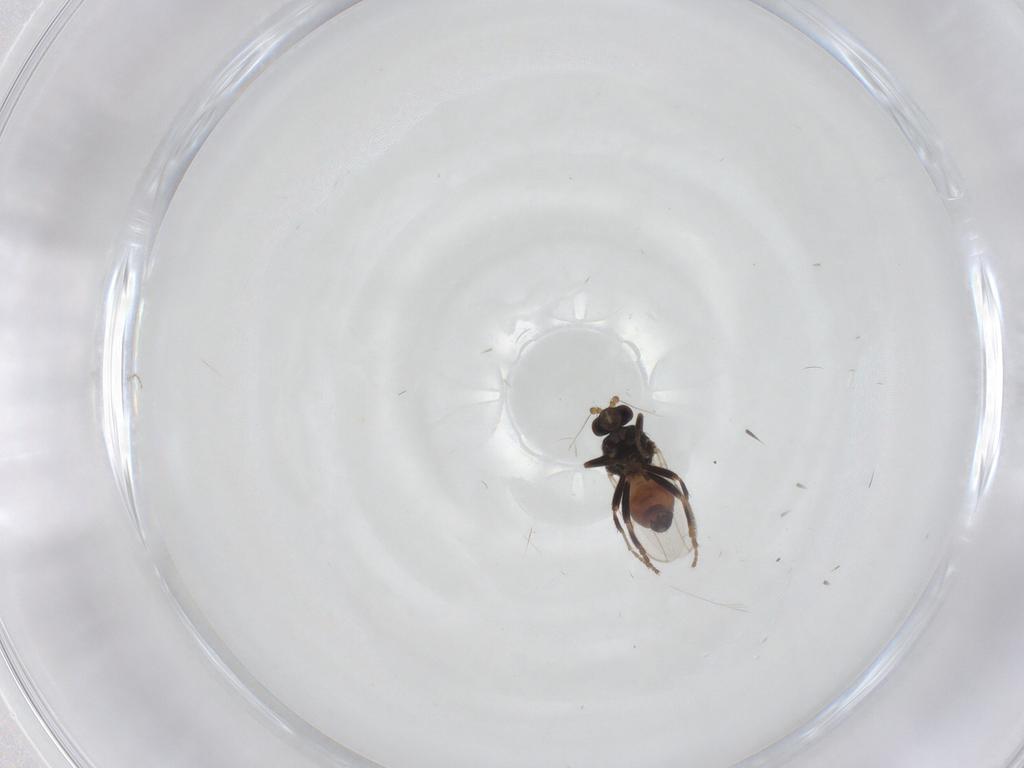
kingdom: Animalia
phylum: Arthropoda
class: Insecta
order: Diptera
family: Sphaeroceridae
